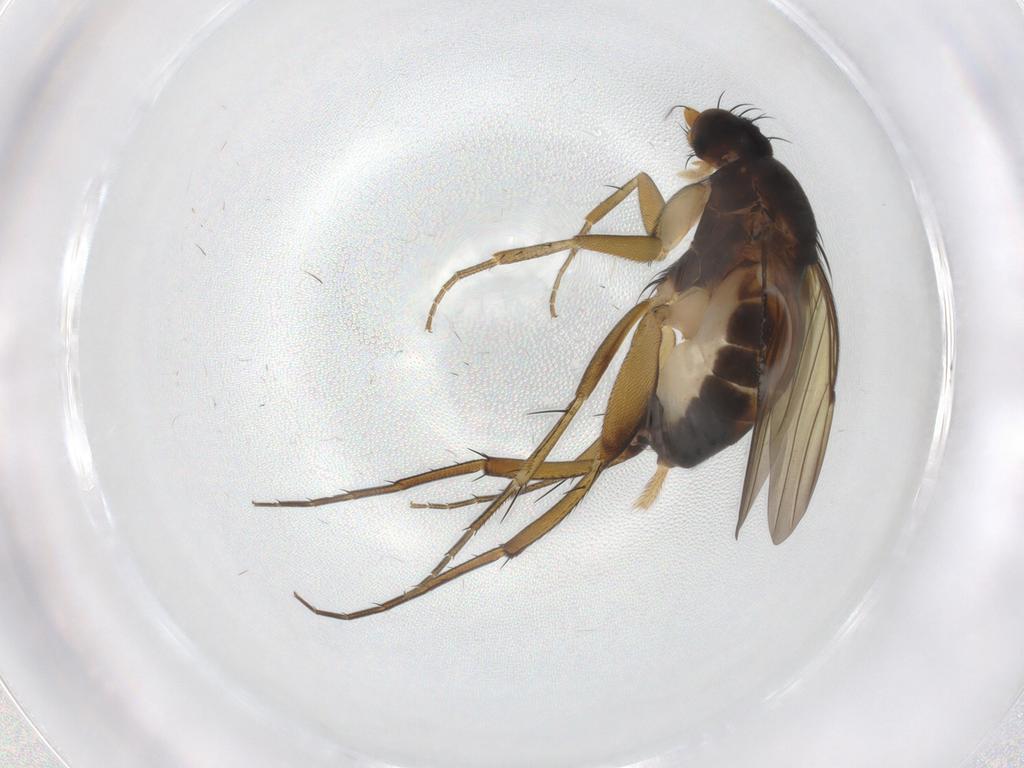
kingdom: Animalia
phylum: Arthropoda
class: Insecta
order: Diptera
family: Phoridae
